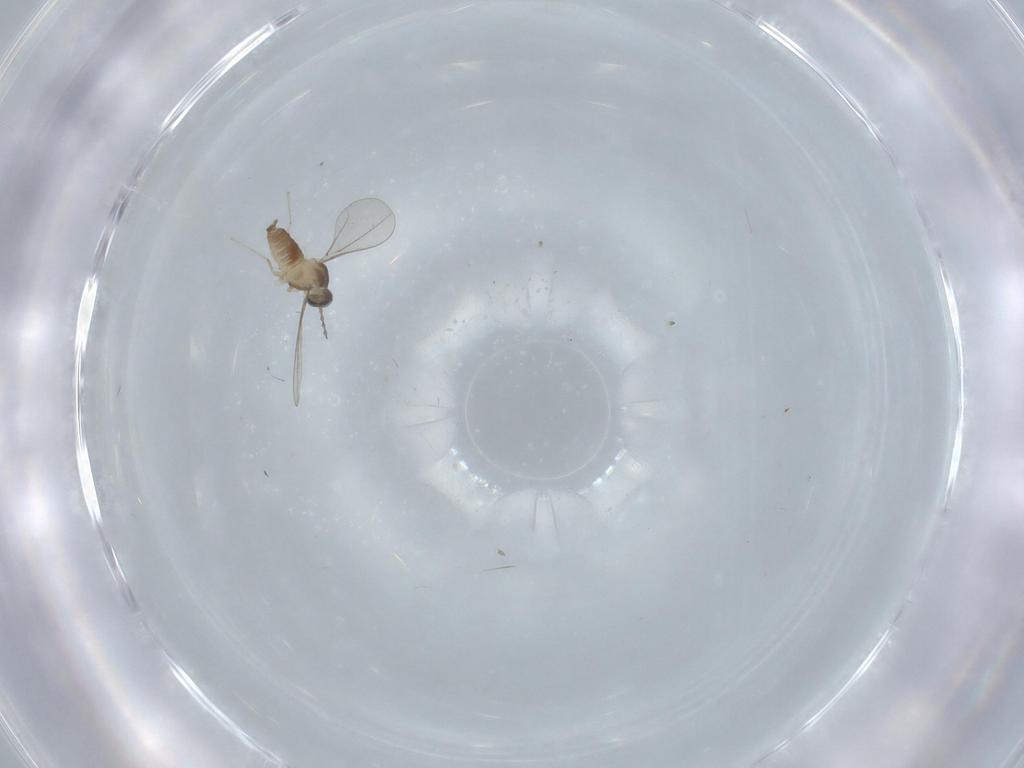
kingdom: Animalia
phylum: Arthropoda
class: Insecta
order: Diptera
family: Cecidomyiidae
